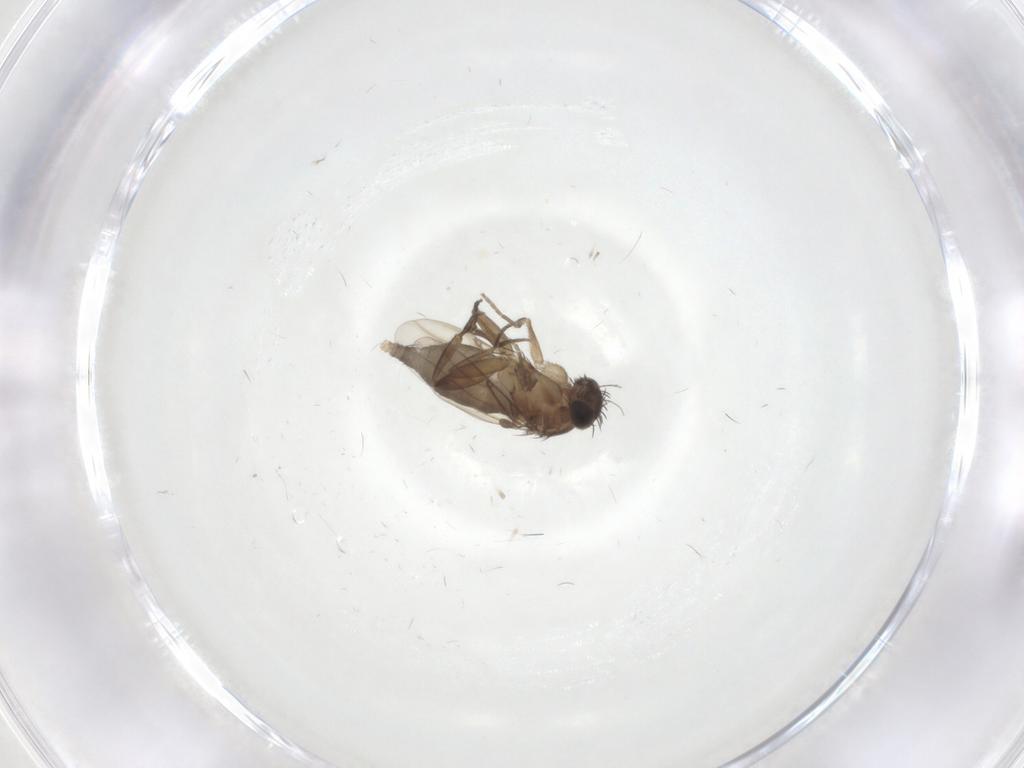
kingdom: Animalia
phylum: Arthropoda
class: Insecta
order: Diptera
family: Phoridae
